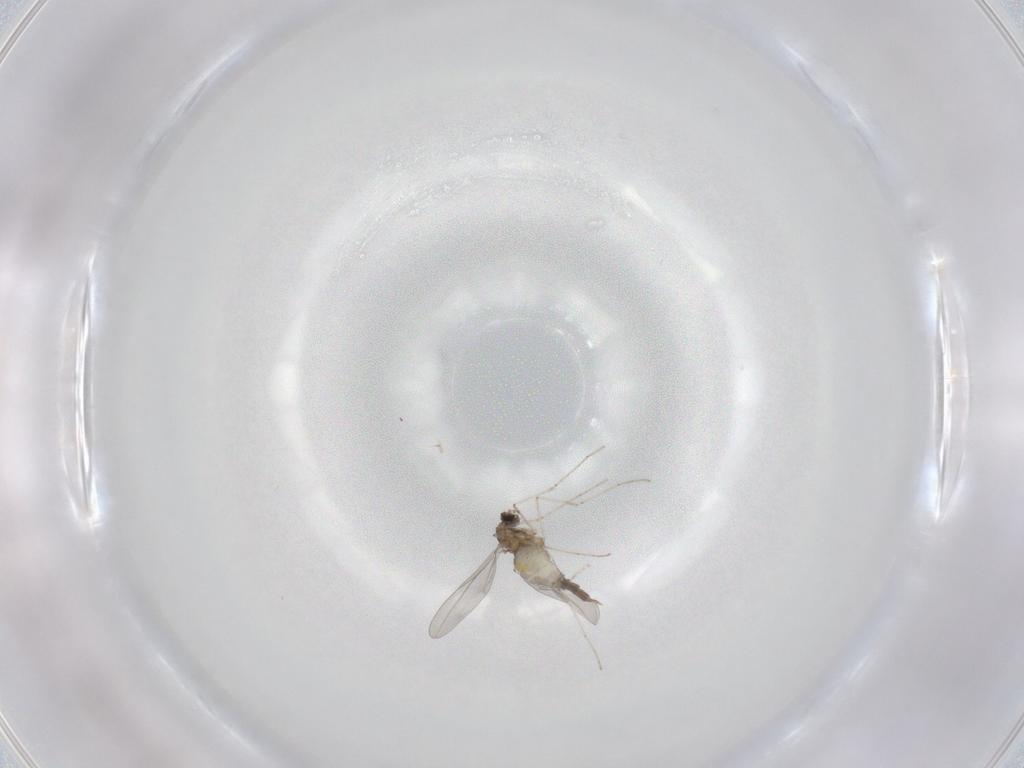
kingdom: Animalia
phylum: Arthropoda
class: Insecta
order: Diptera
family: Cecidomyiidae
